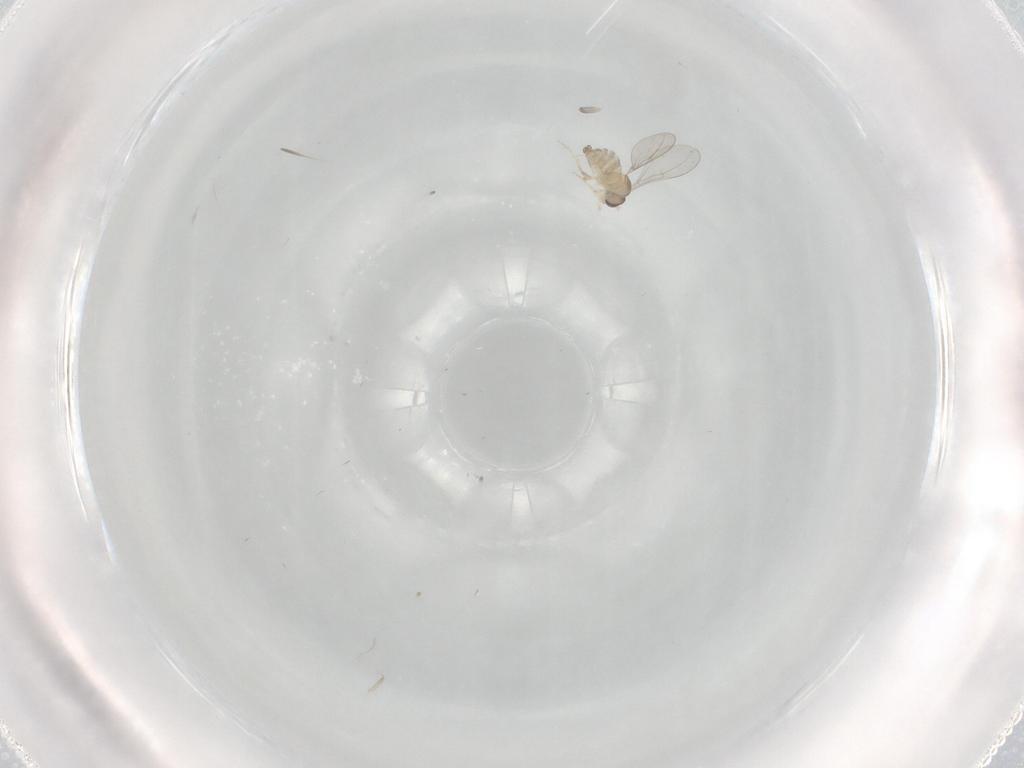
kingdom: Animalia
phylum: Arthropoda
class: Insecta
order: Diptera
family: Cecidomyiidae
